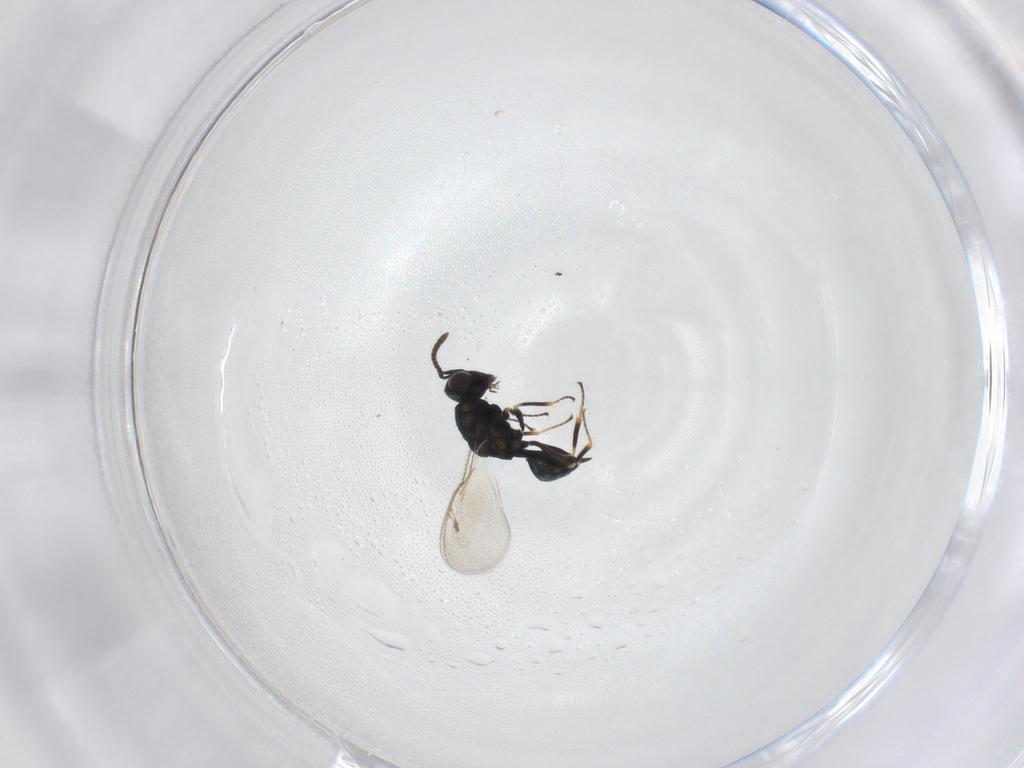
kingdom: Animalia
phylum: Arthropoda
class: Insecta
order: Hymenoptera
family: Pteromalidae
